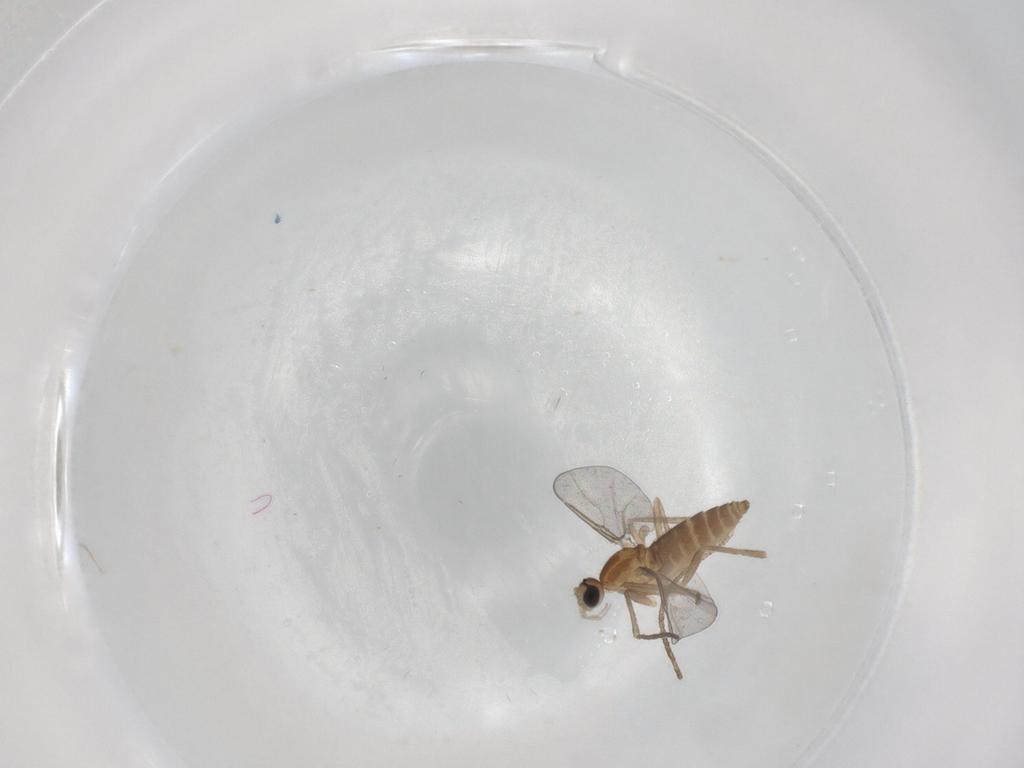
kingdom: Animalia
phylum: Arthropoda
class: Insecta
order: Diptera
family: Cecidomyiidae
